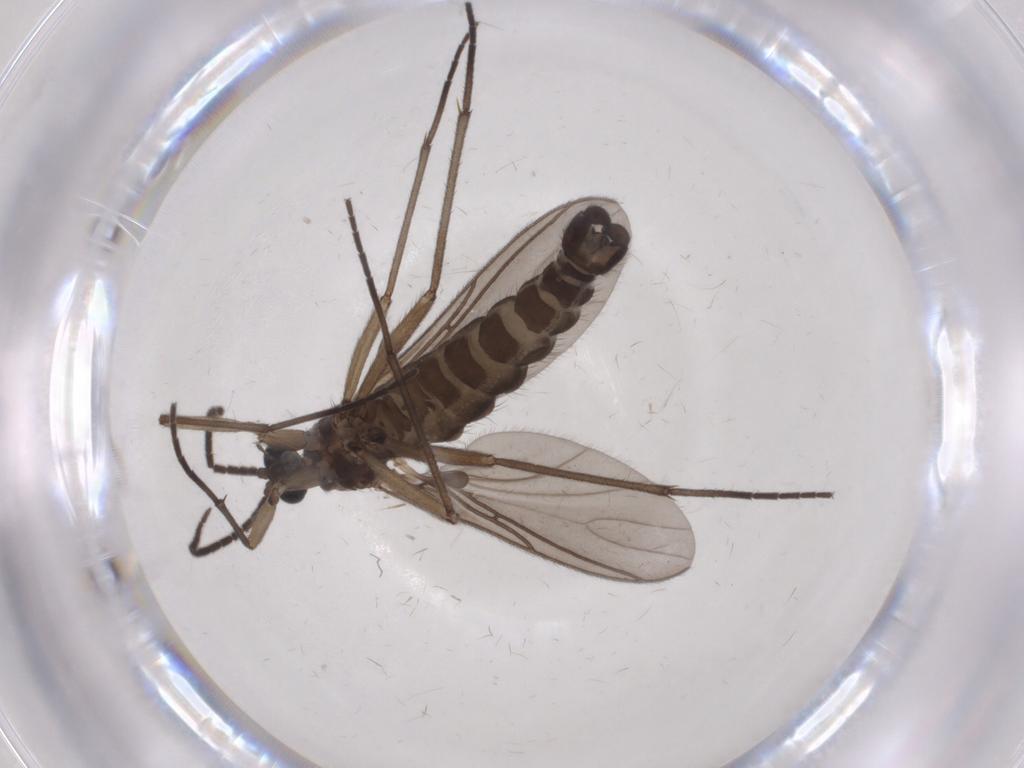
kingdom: Animalia
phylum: Arthropoda
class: Insecta
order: Diptera
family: Sciaridae
